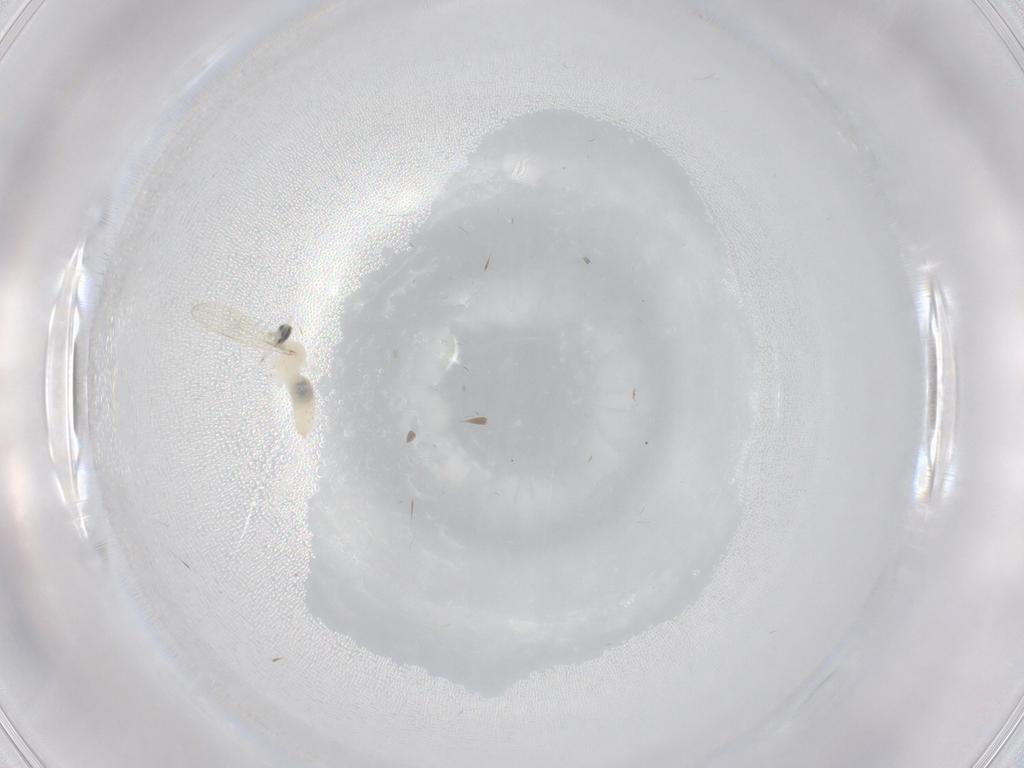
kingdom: Animalia
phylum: Arthropoda
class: Insecta
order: Diptera
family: Cecidomyiidae
